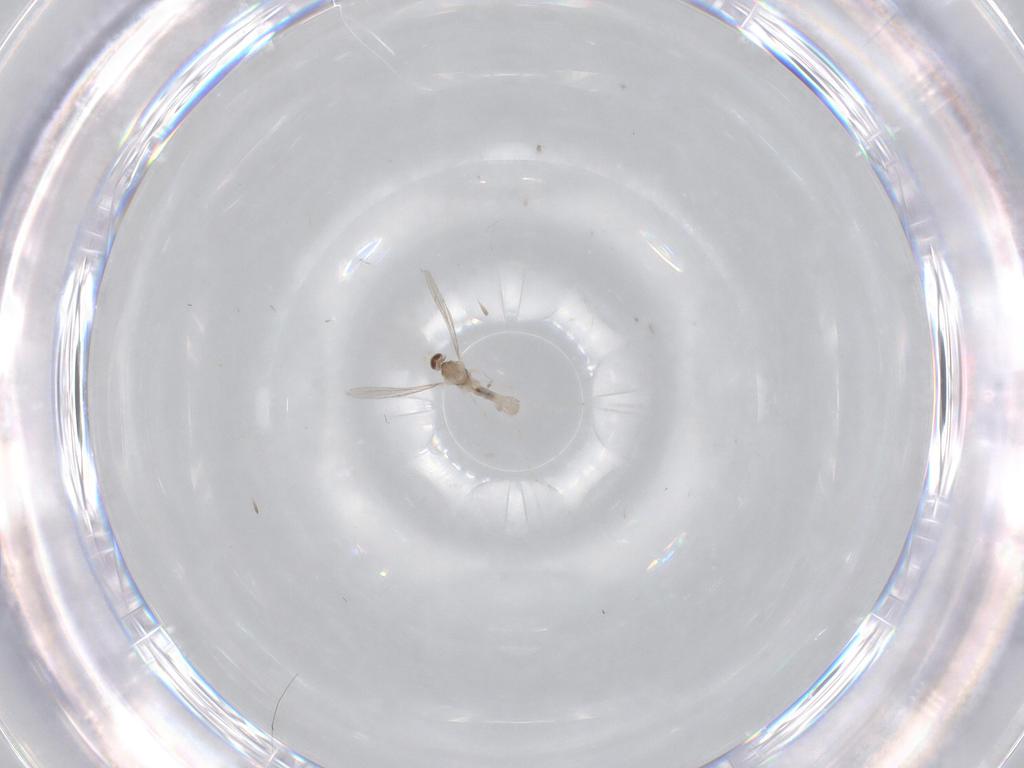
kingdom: Animalia
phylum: Arthropoda
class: Insecta
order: Diptera
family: Cecidomyiidae
